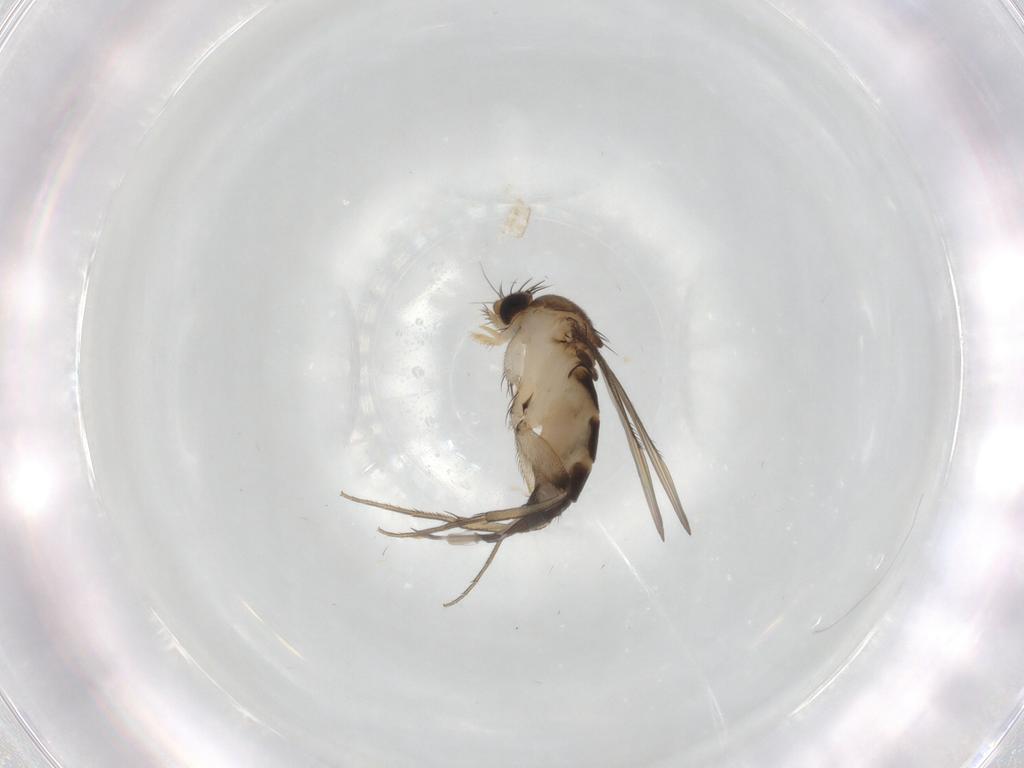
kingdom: Animalia
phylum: Arthropoda
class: Insecta
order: Diptera
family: Phoridae
